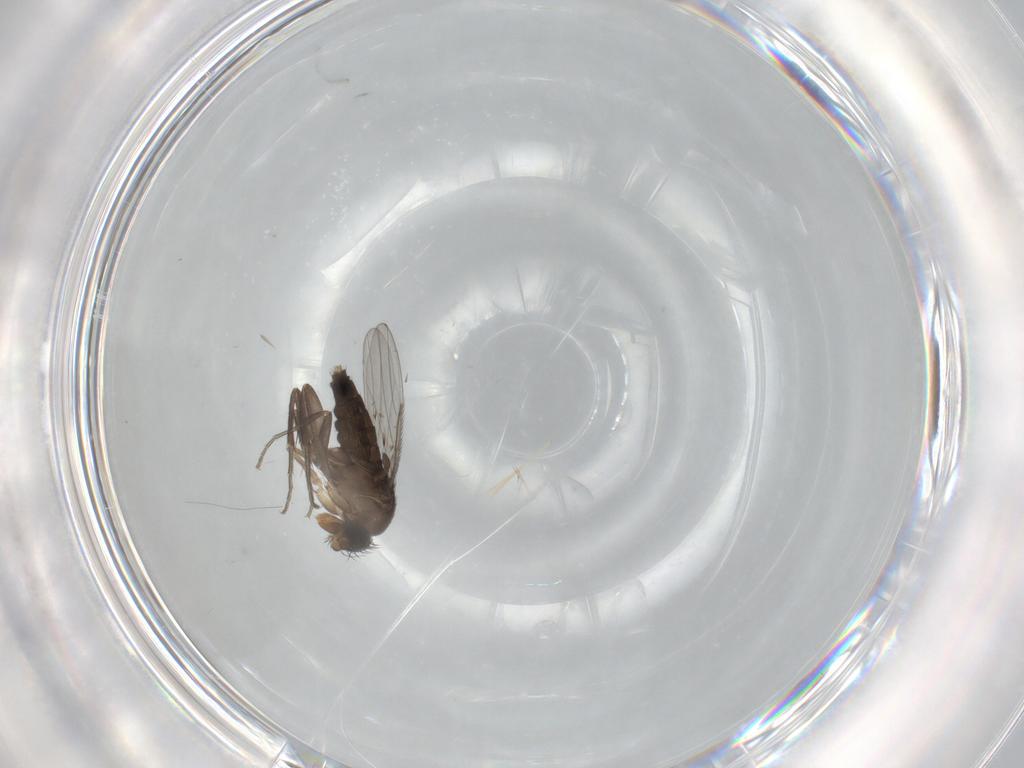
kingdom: Animalia
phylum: Arthropoda
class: Insecta
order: Diptera
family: Phoridae
